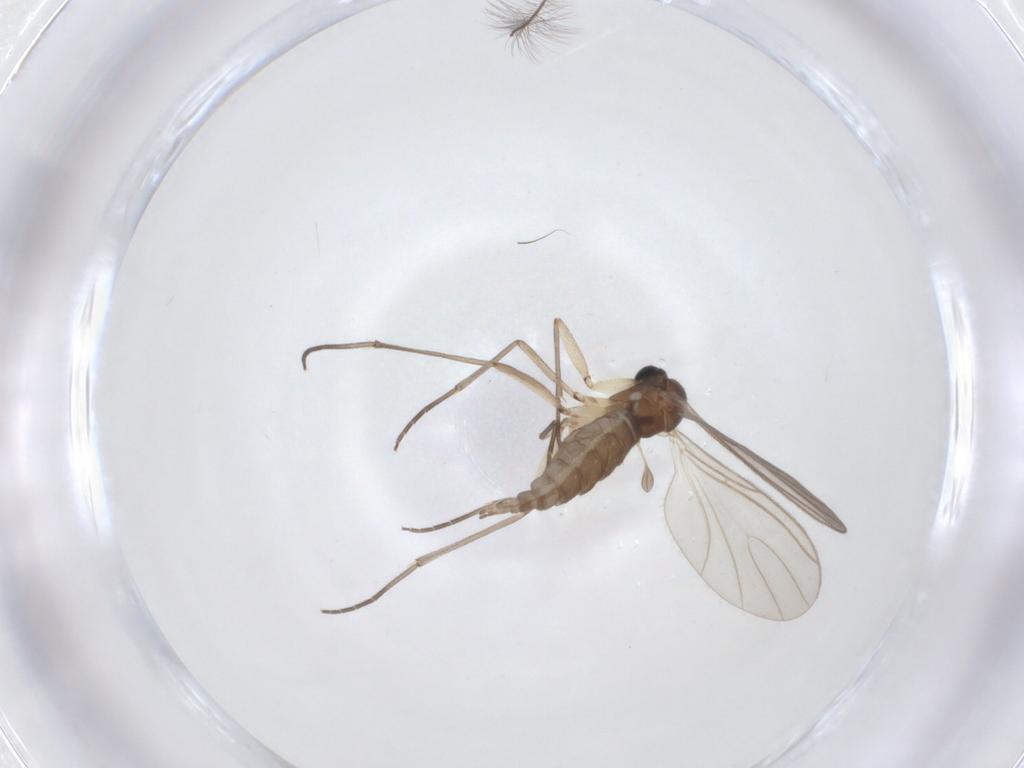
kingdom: Animalia
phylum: Arthropoda
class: Insecta
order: Diptera
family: Sciaridae
